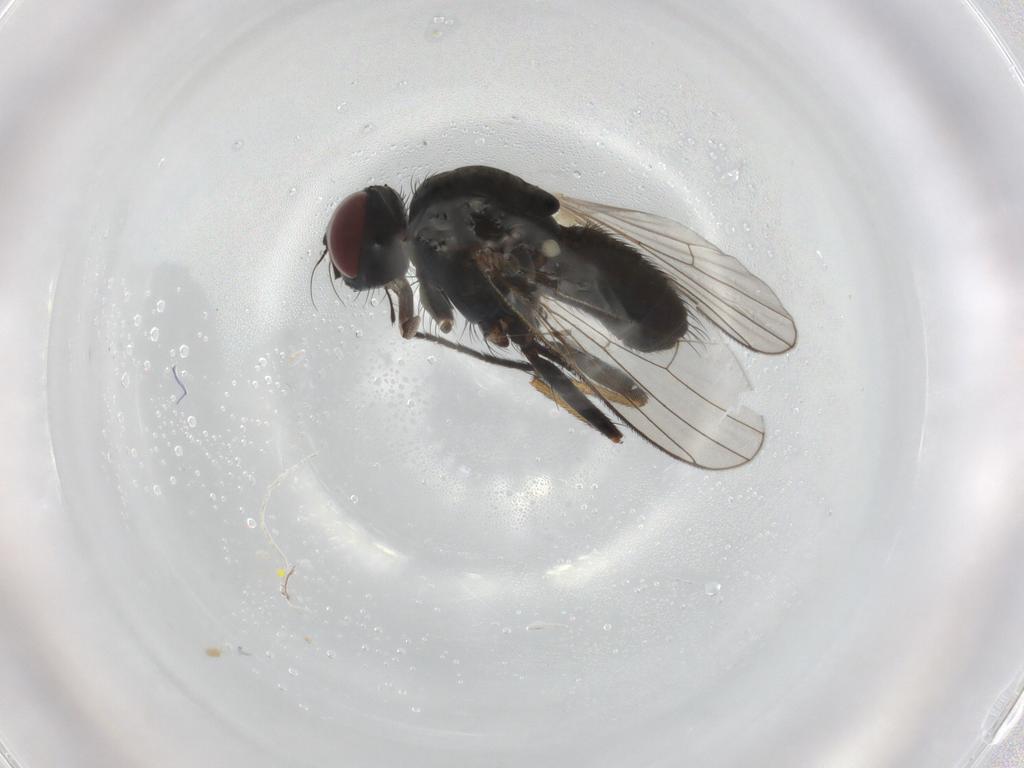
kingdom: Animalia
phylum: Arthropoda
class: Insecta
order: Diptera
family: Muscidae
